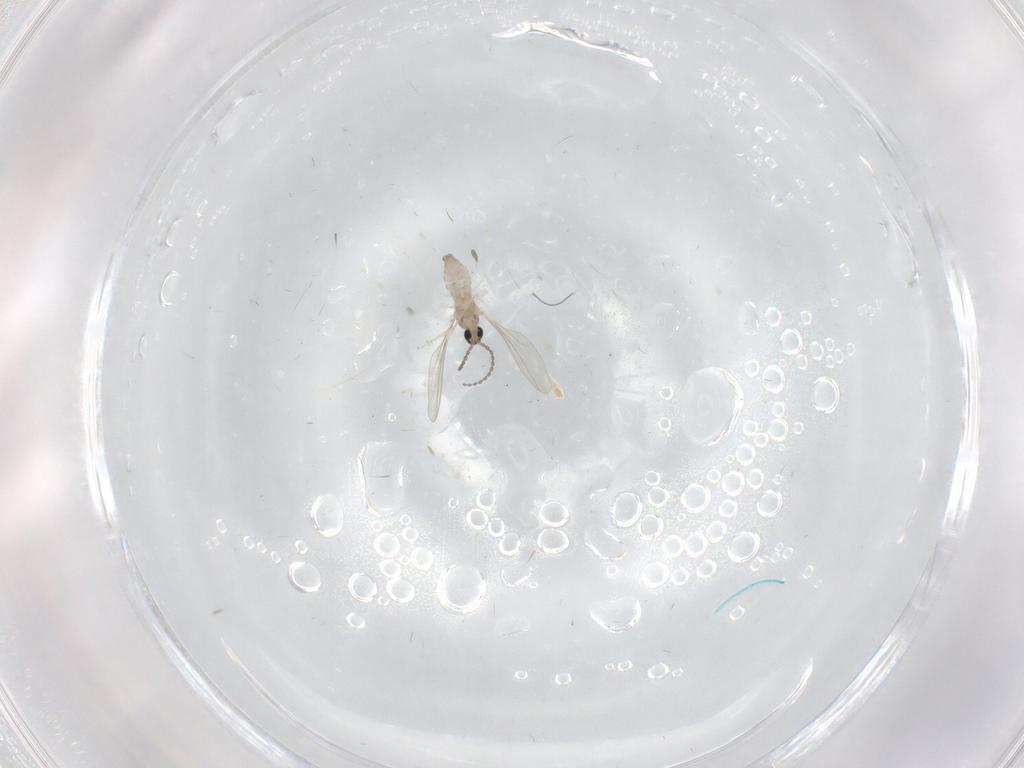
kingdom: Animalia
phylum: Arthropoda
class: Insecta
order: Diptera
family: Cecidomyiidae
